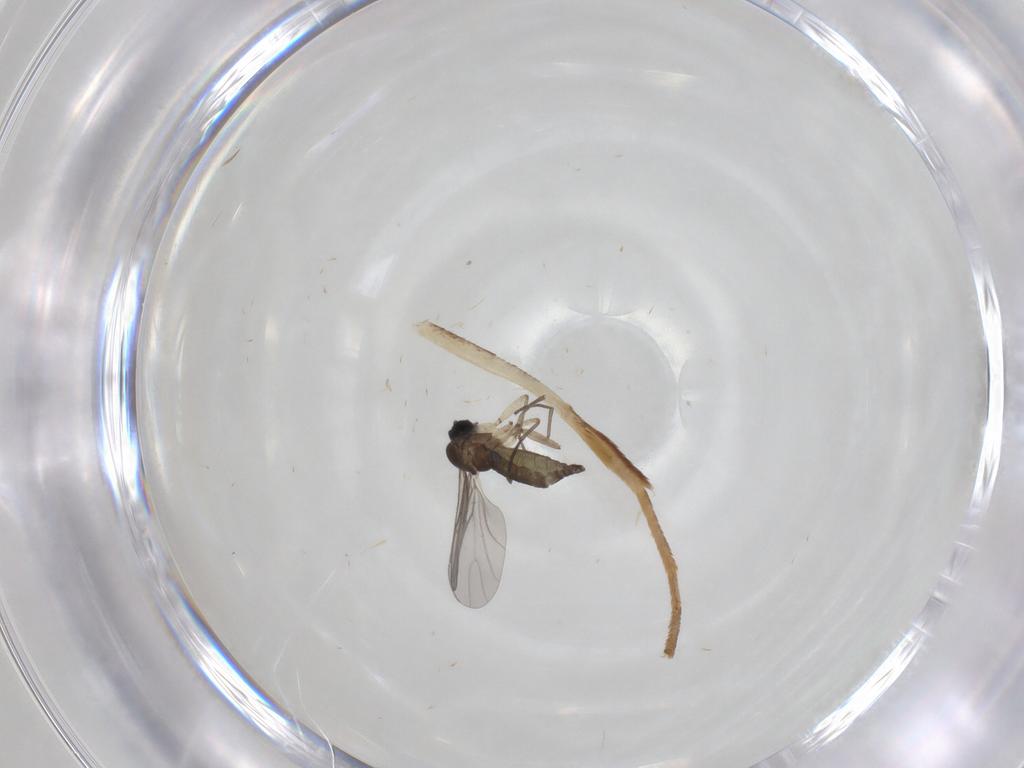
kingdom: Animalia
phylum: Arthropoda
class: Insecta
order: Diptera
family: Sciaridae
